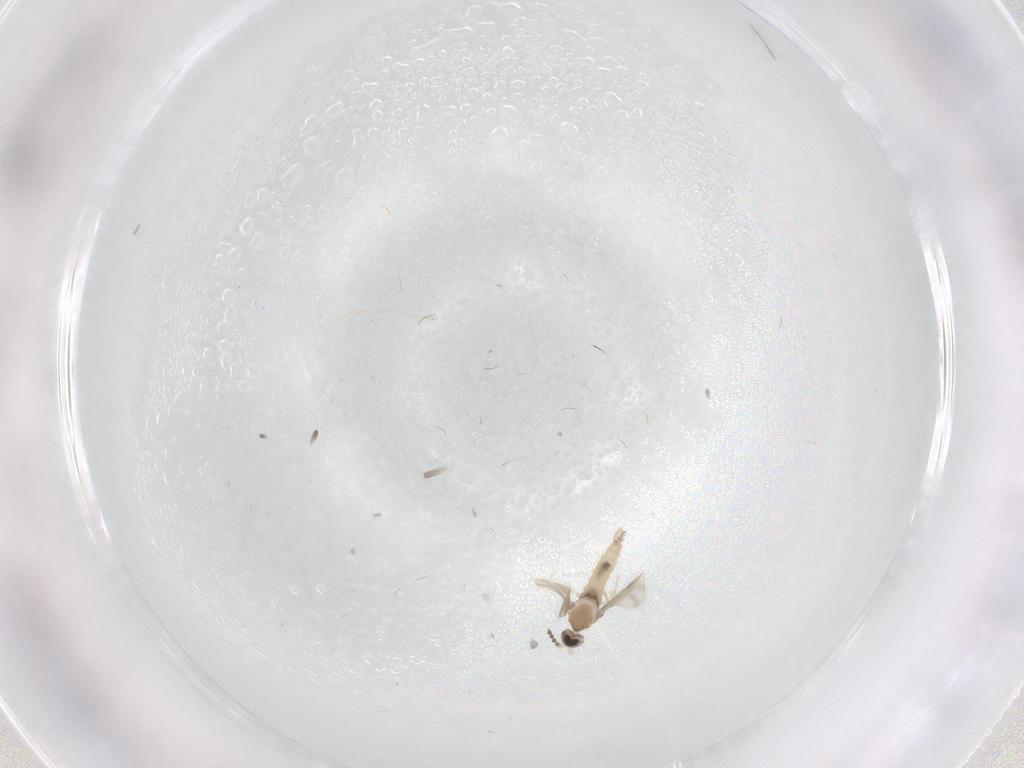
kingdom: Animalia
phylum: Arthropoda
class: Insecta
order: Diptera
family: Cecidomyiidae
